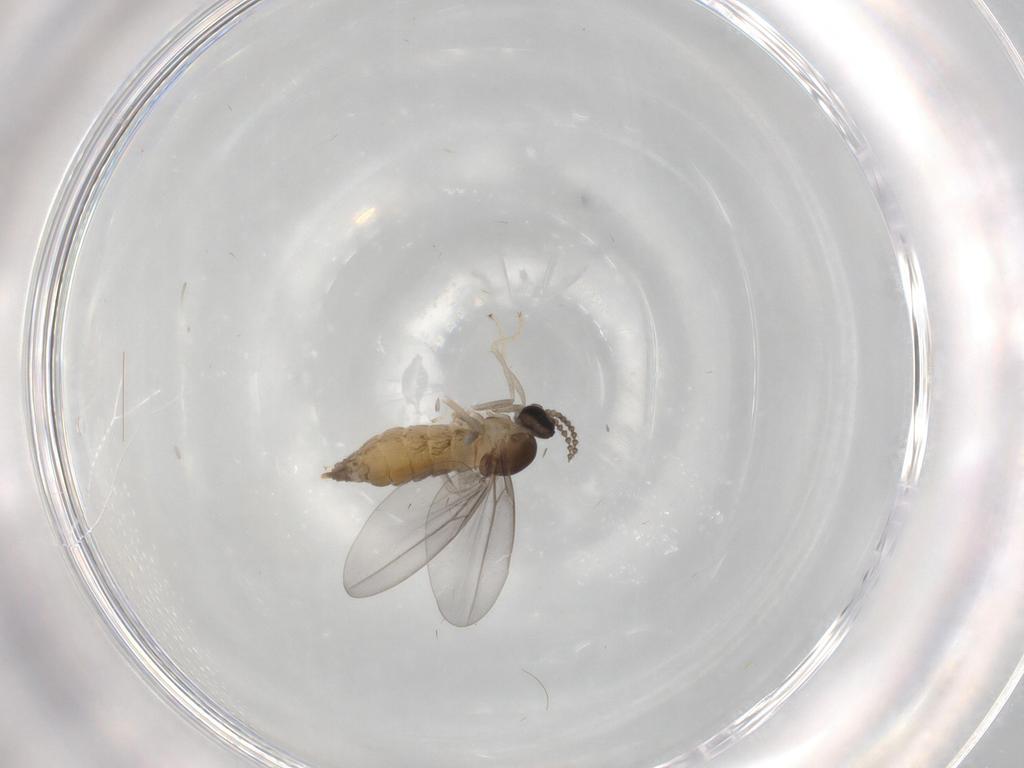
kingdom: Animalia
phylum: Arthropoda
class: Insecta
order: Diptera
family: Cecidomyiidae
